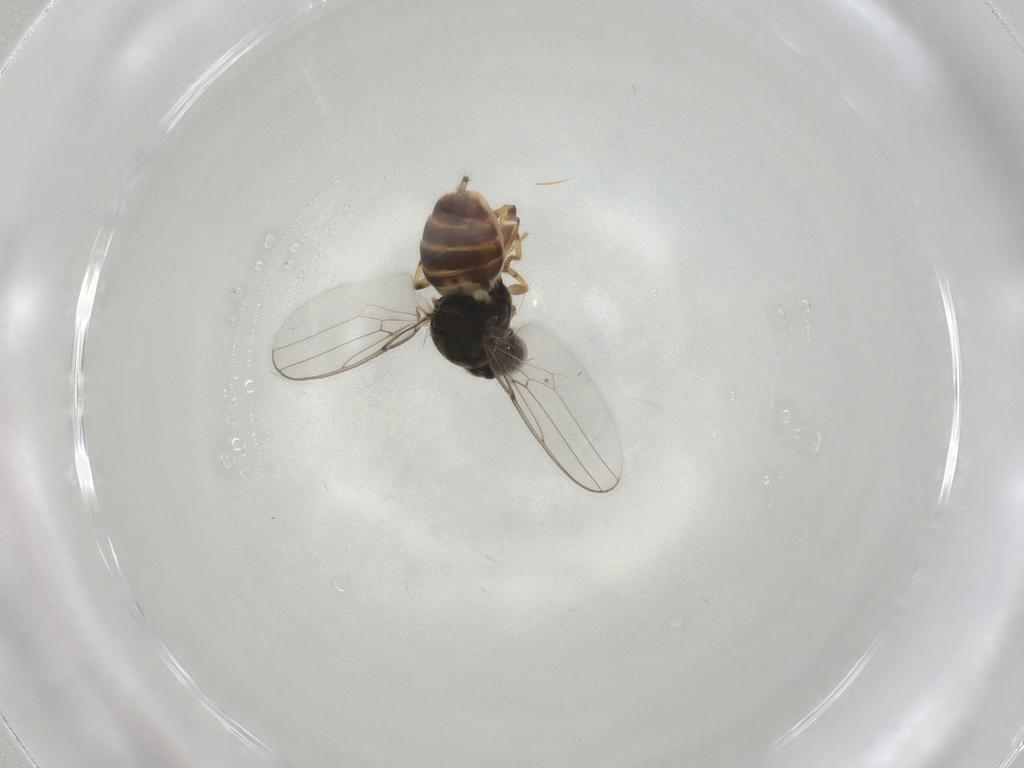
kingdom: Animalia
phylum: Arthropoda
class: Insecta
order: Diptera
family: Chloropidae
